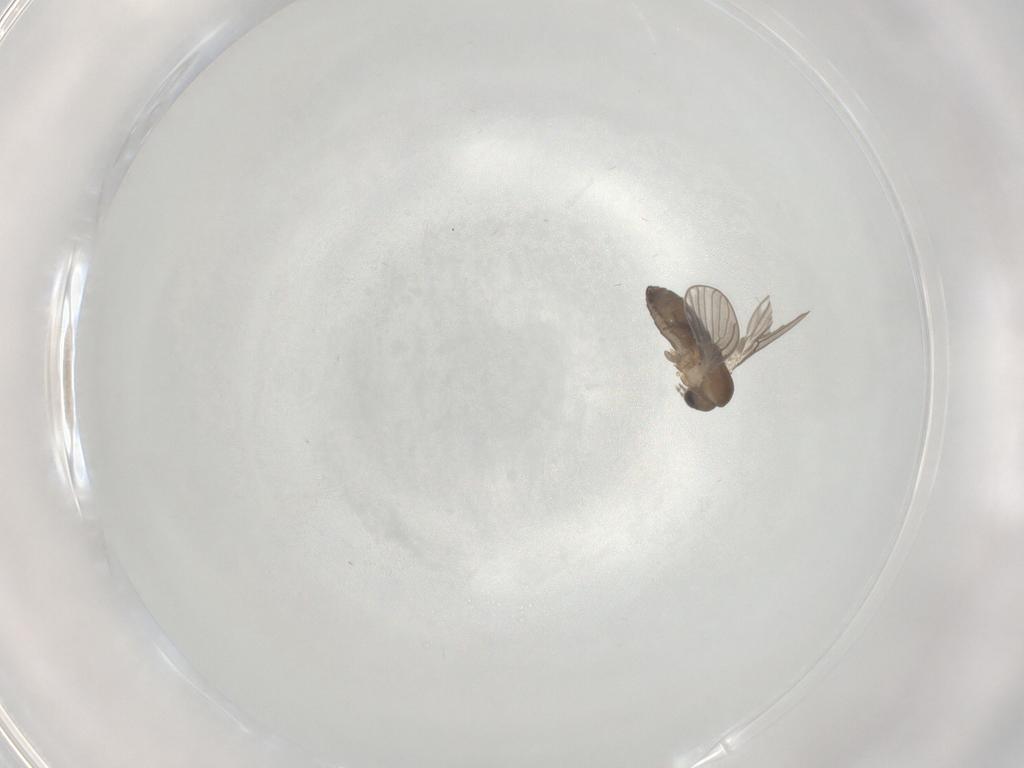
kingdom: Animalia
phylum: Arthropoda
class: Insecta
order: Diptera
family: Psychodidae
